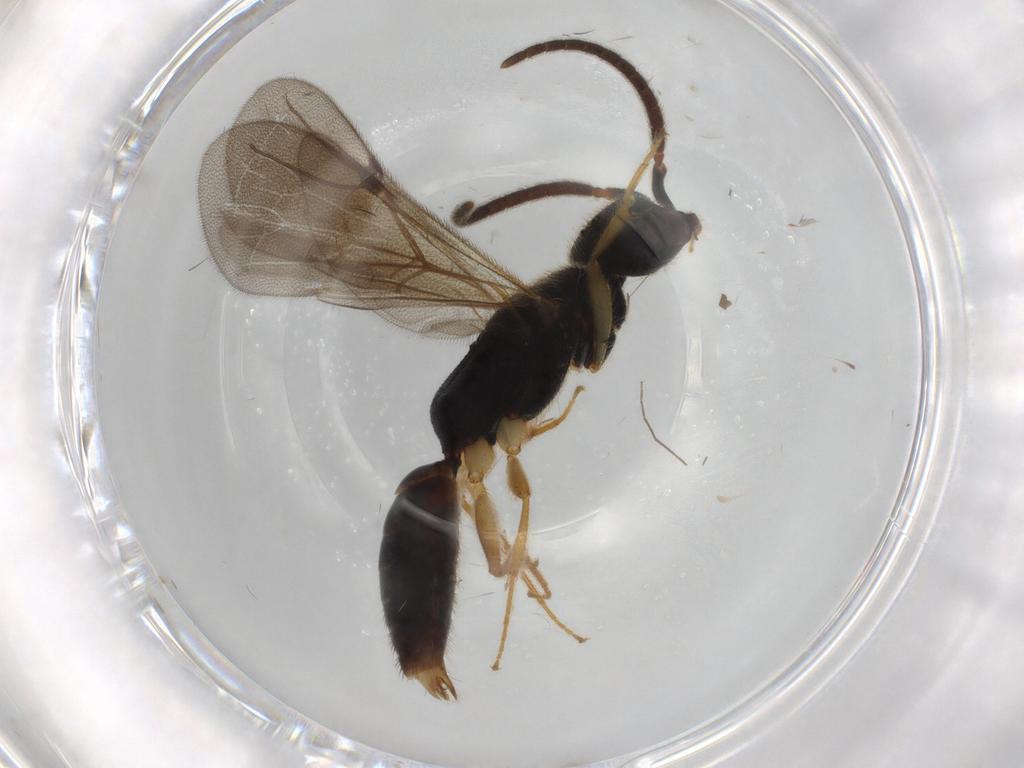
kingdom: Animalia
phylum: Arthropoda
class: Insecta
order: Hymenoptera
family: Bethylidae
